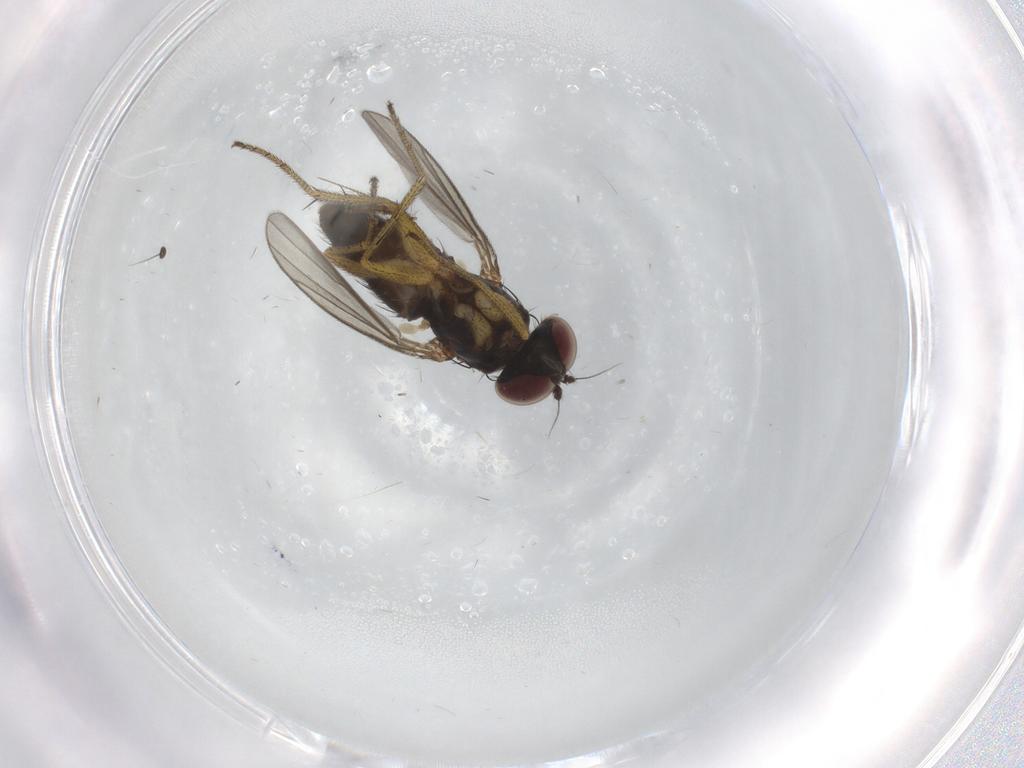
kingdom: Animalia
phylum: Arthropoda
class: Insecta
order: Diptera
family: Dolichopodidae
